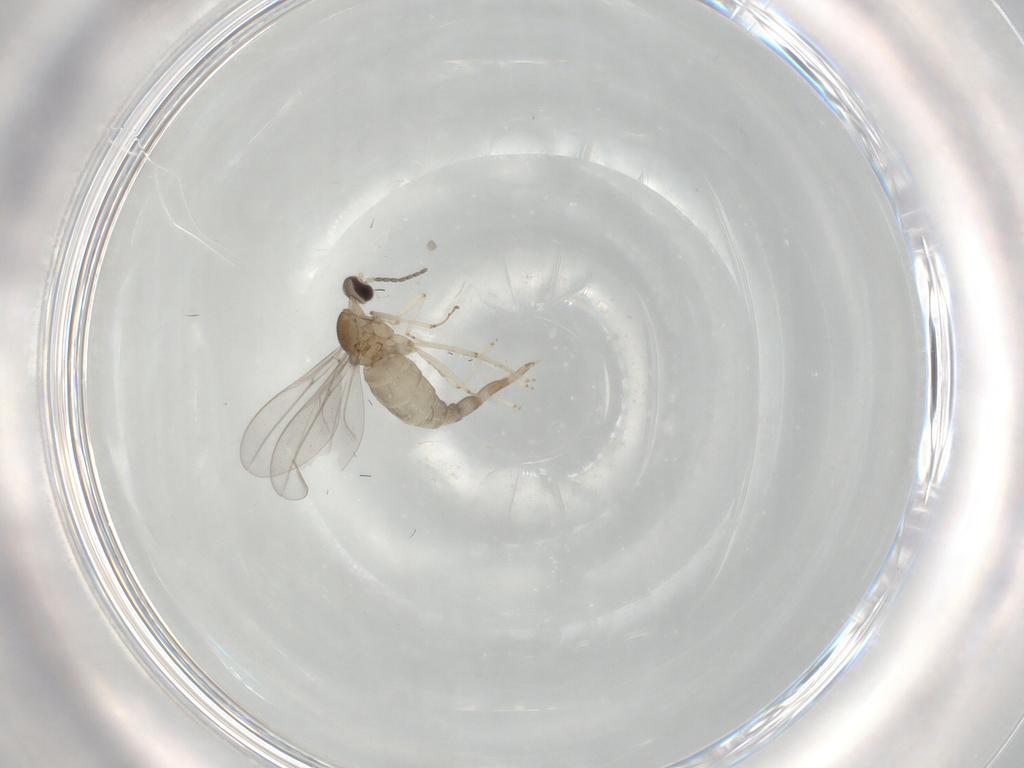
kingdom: Animalia
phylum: Arthropoda
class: Insecta
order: Diptera
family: Cecidomyiidae
